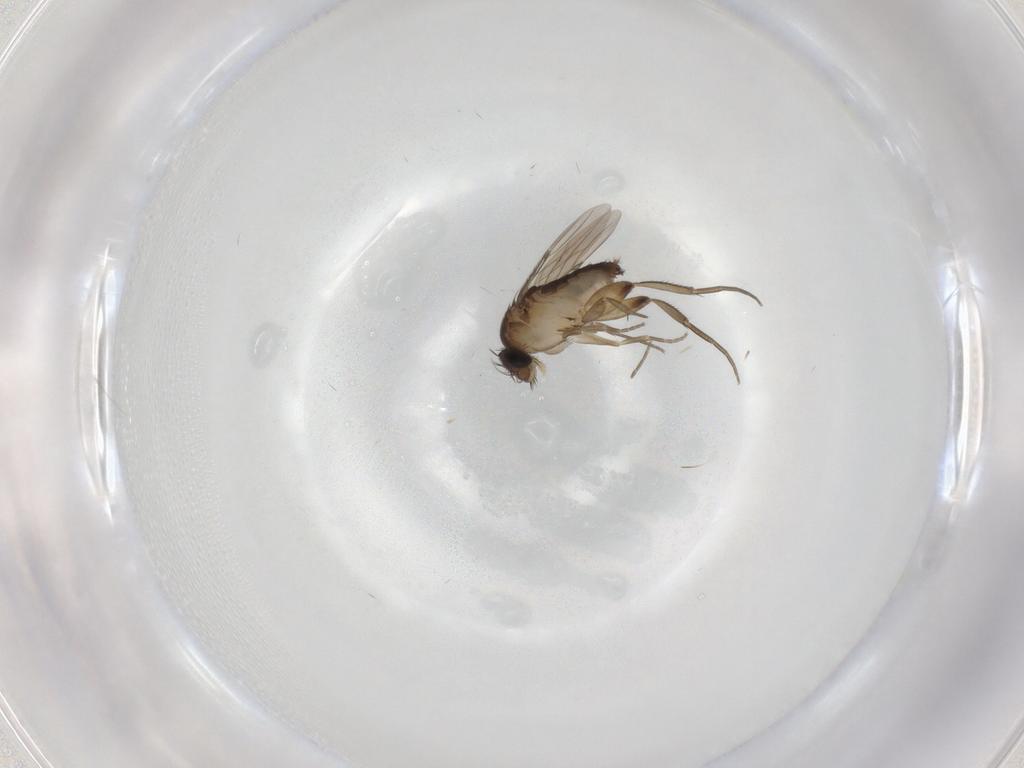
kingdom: Animalia
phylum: Arthropoda
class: Insecta
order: Diptera
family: Phoridae
